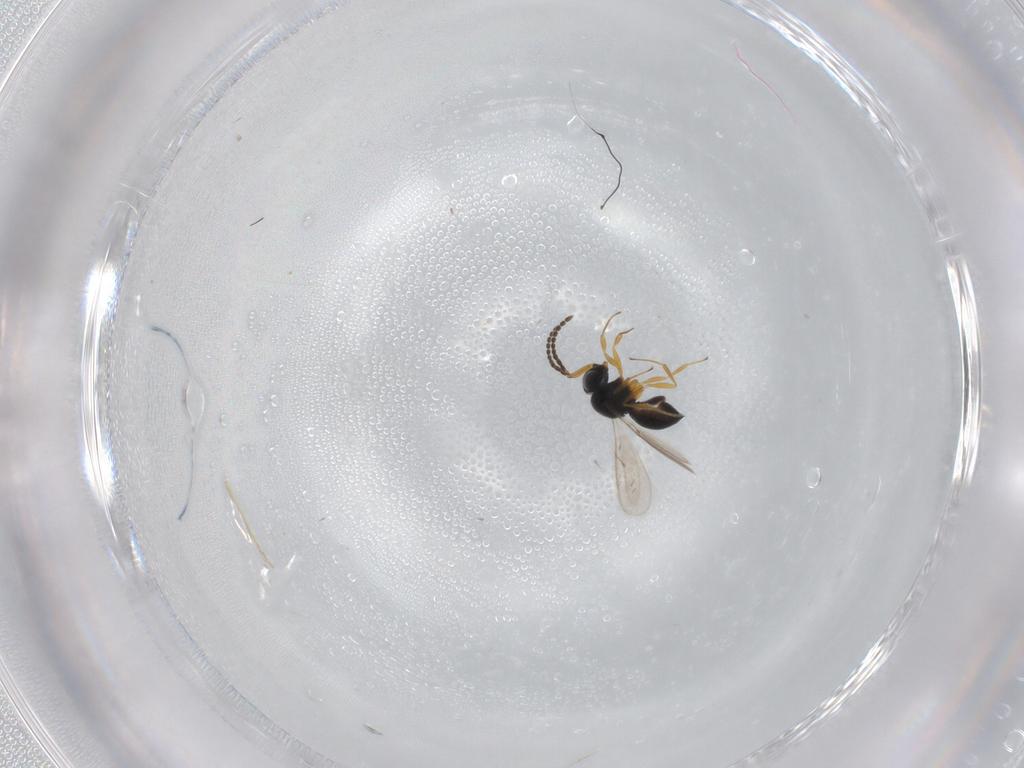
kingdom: Animalia
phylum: Arthropoda
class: Insecta
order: Hymenoptera
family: Scelionidae
